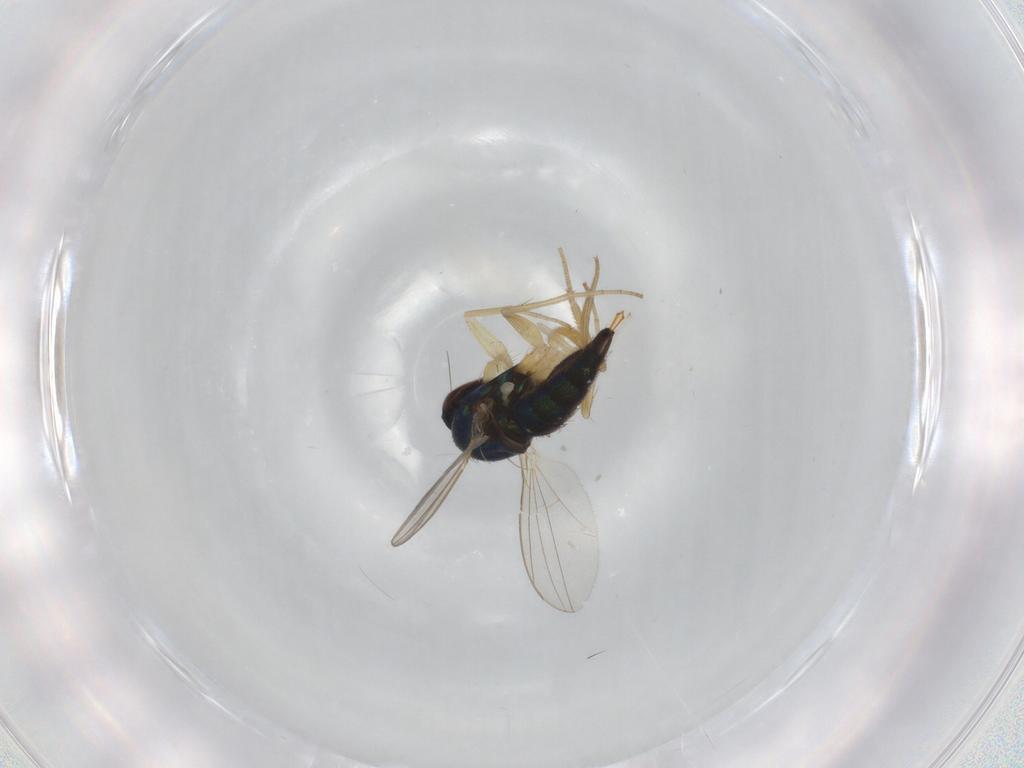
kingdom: Animalia
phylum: Arthropoda
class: Insecta
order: Diptera
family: Dolichopodidae
